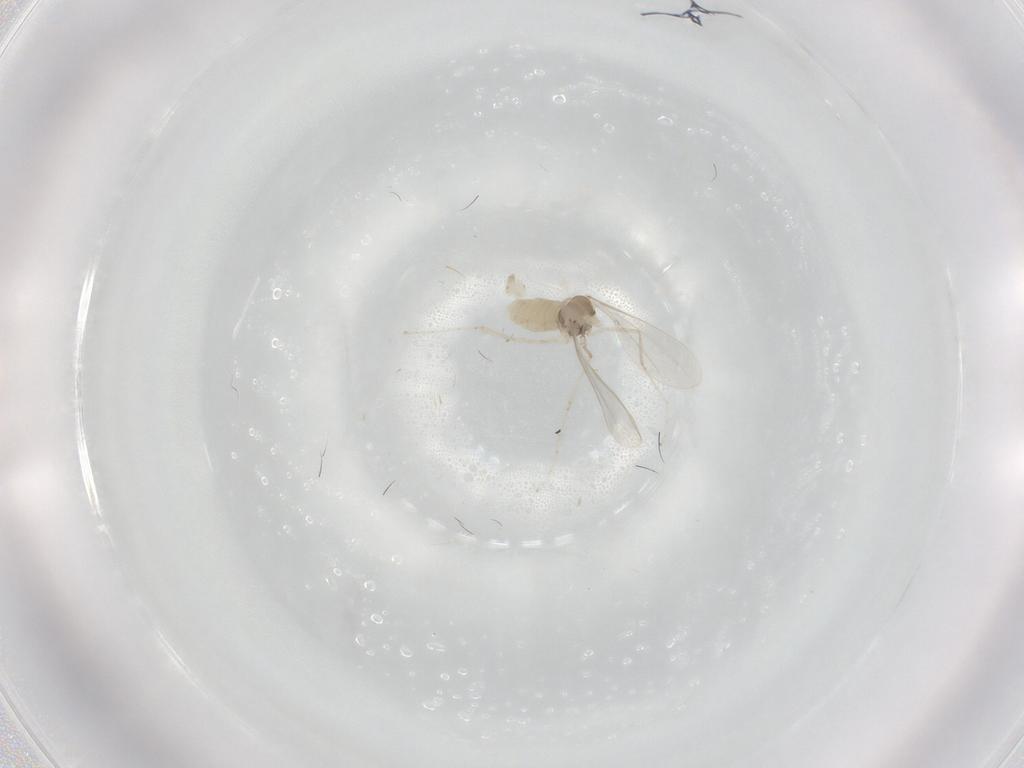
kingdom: Animalia
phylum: Arthropoda
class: Insecta
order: Diptera
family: Cecidomyiidae
